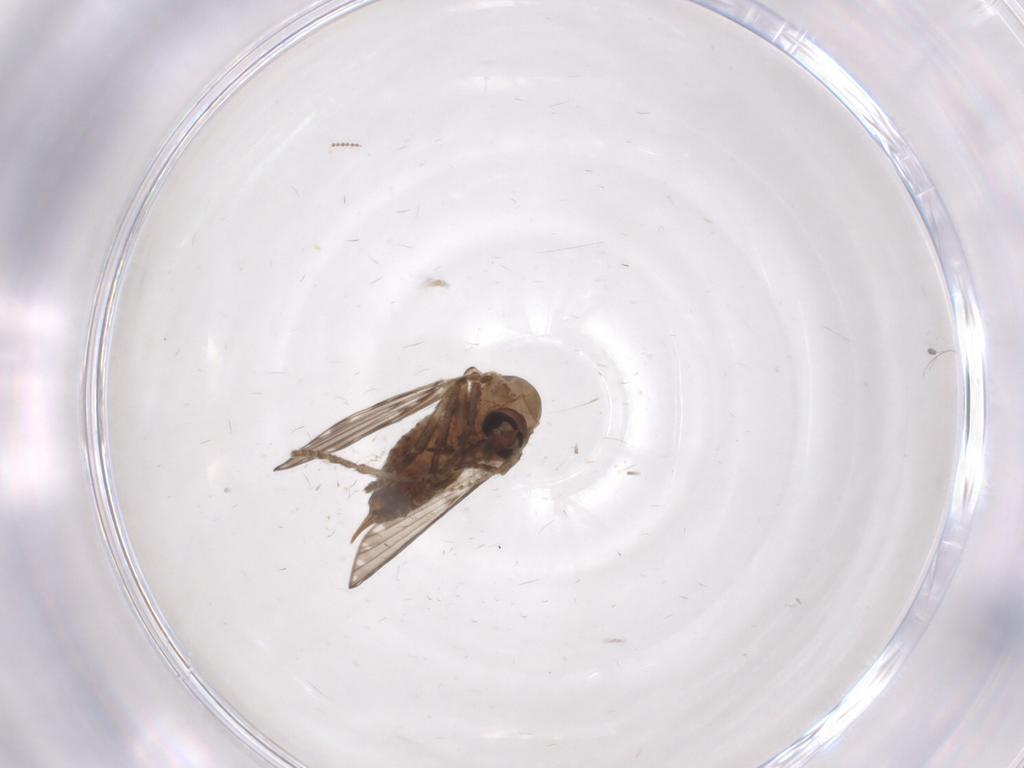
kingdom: Animalia
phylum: Arthropoda
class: Insecta
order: Diptera
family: Psychodidae
